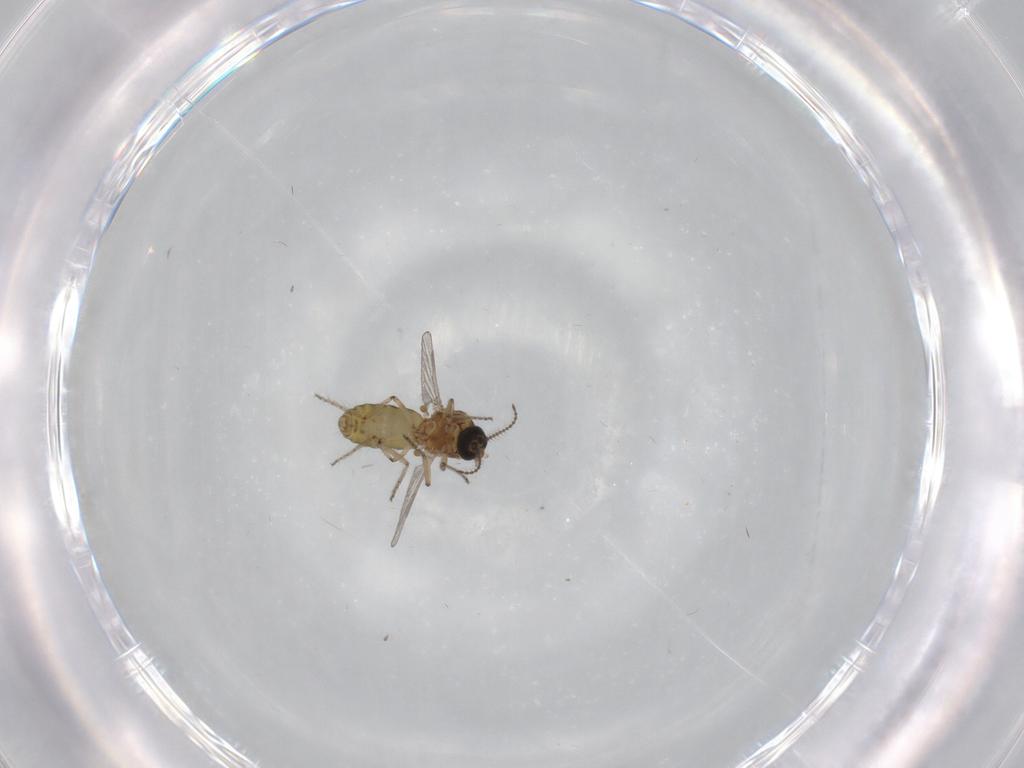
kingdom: Animalia
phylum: Arthropoda
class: Insecta
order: Diptera
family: Ceratopogonidae
